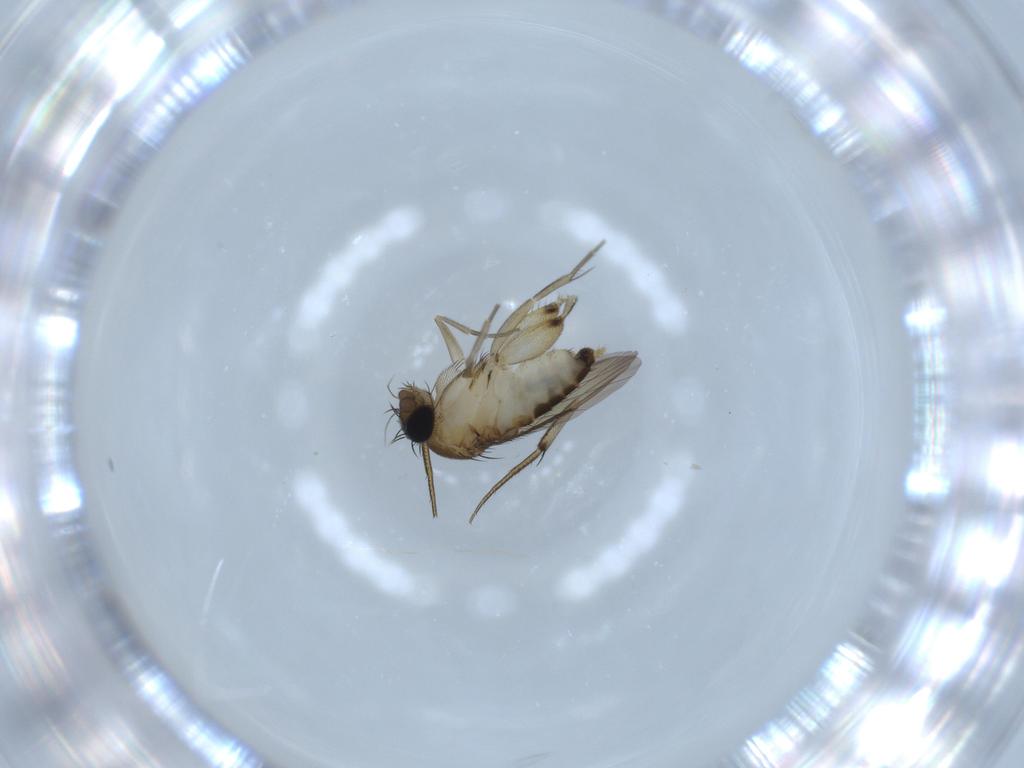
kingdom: Animalia
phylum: Arthropoda
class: Insecta
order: Diptera
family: Phoridae
